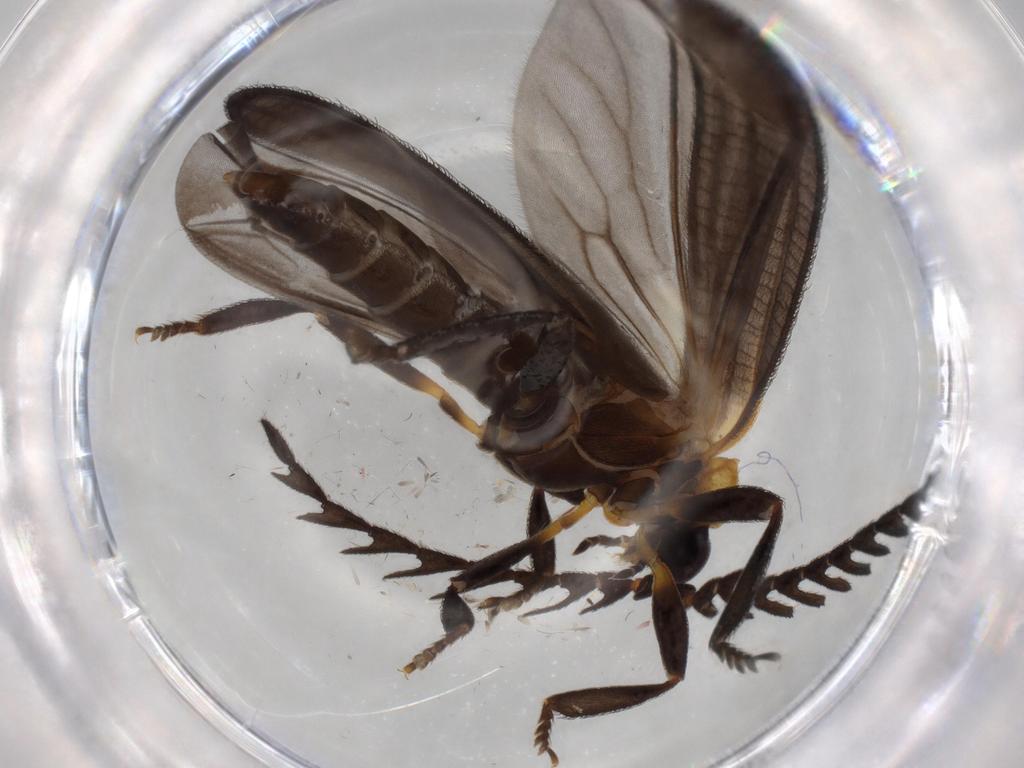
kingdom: Animalia
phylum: Arthropoda
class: Insecta
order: Coleoptera
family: Lycidae
